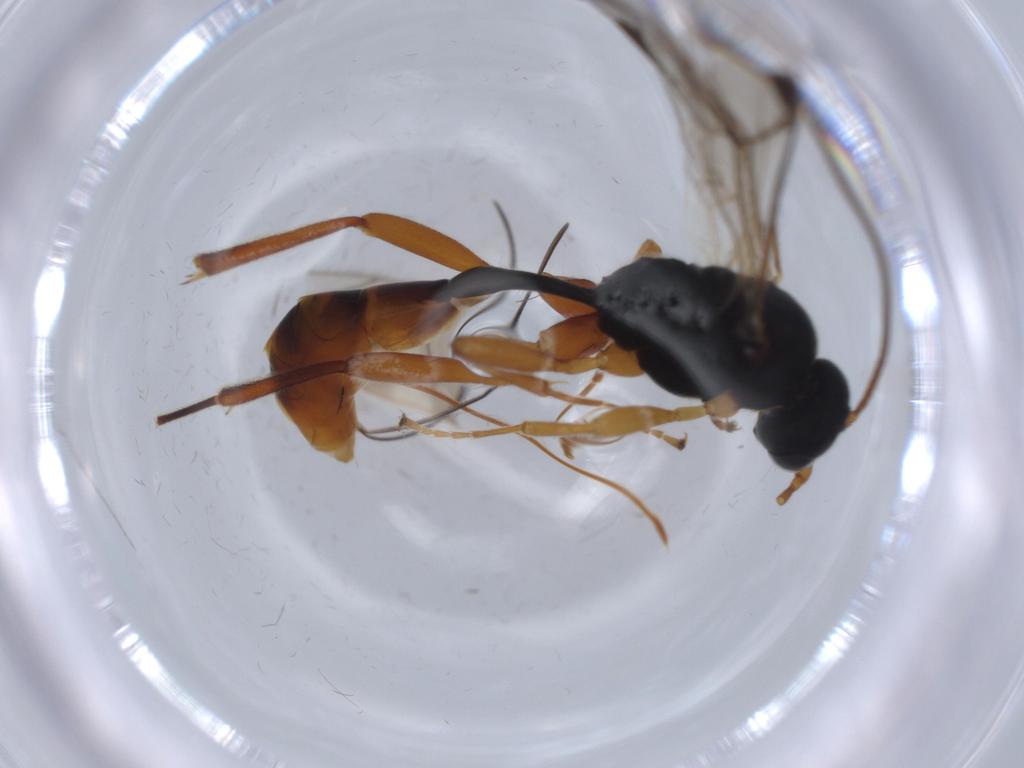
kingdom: Animalia
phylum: Arthropoda
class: Insecta
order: Hymenoptera
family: Ichneumonidae
